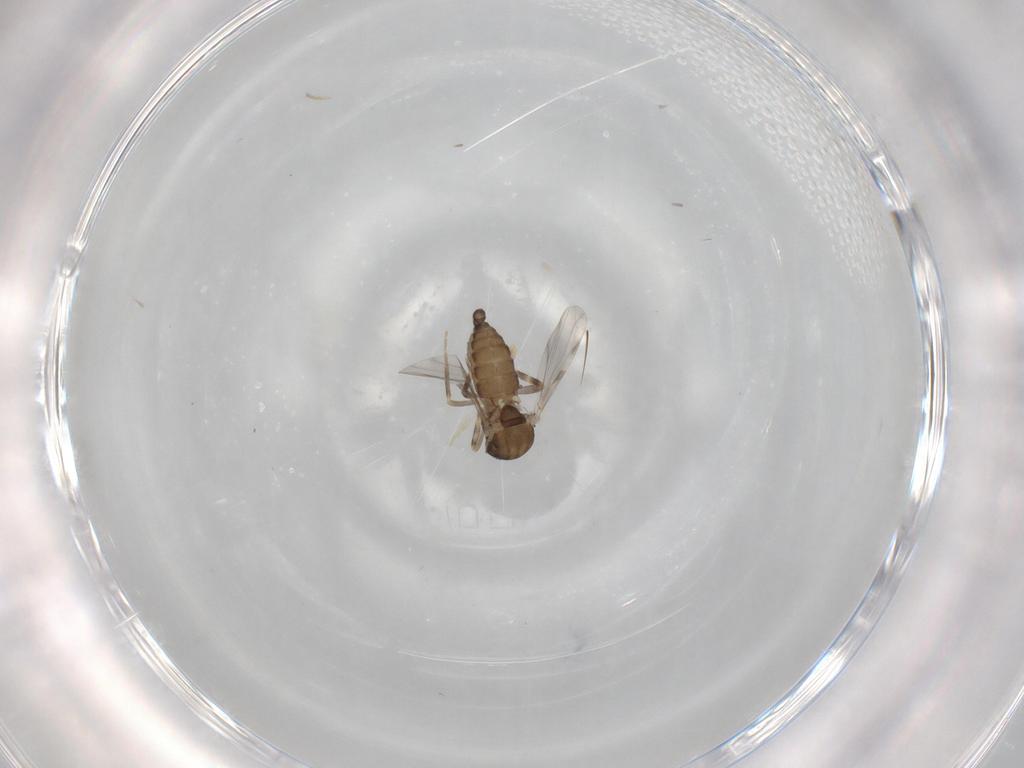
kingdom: Animalia
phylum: Arthropoda
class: Insecta
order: Diptera
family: Ceratopogonidae
